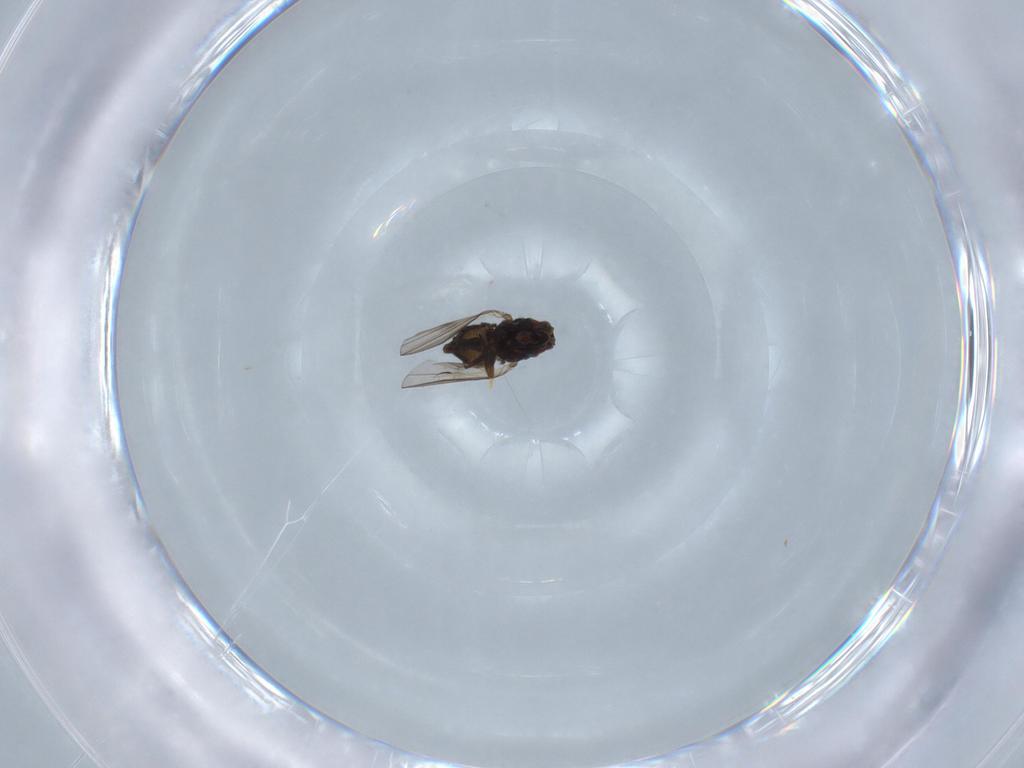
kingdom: Animalia
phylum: Arthropoda
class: Insecta
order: Diptera
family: Ephydridae
